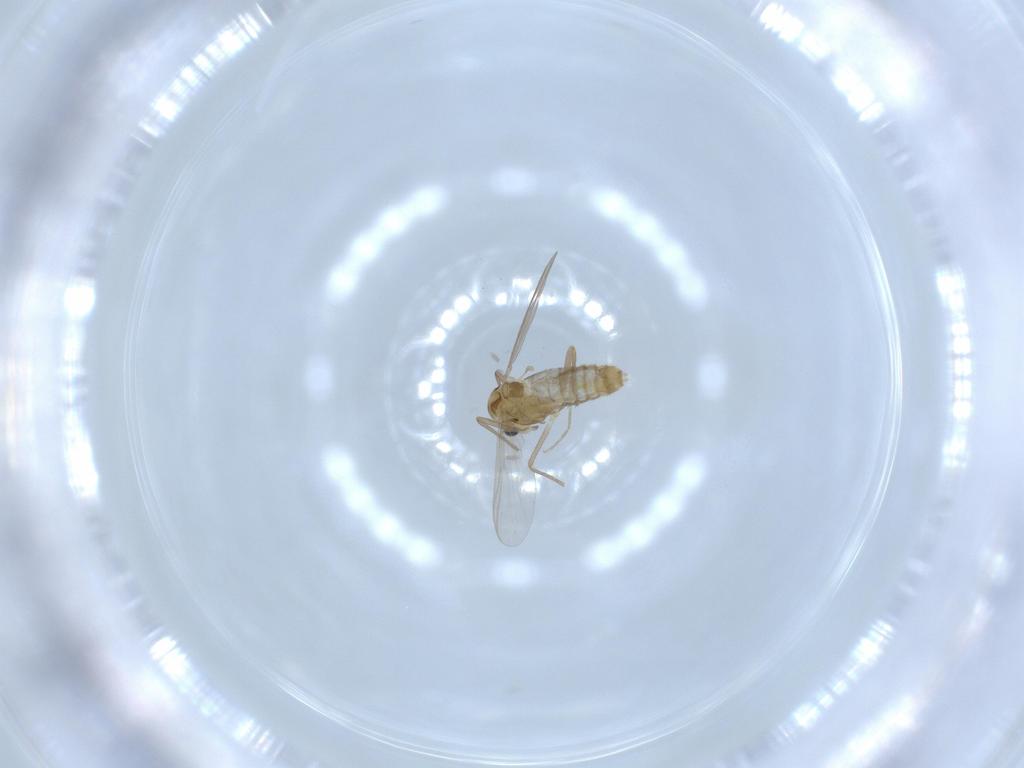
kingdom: Animalia
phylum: Arthropoda
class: Insecta
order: Diptera
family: Chironomidae
